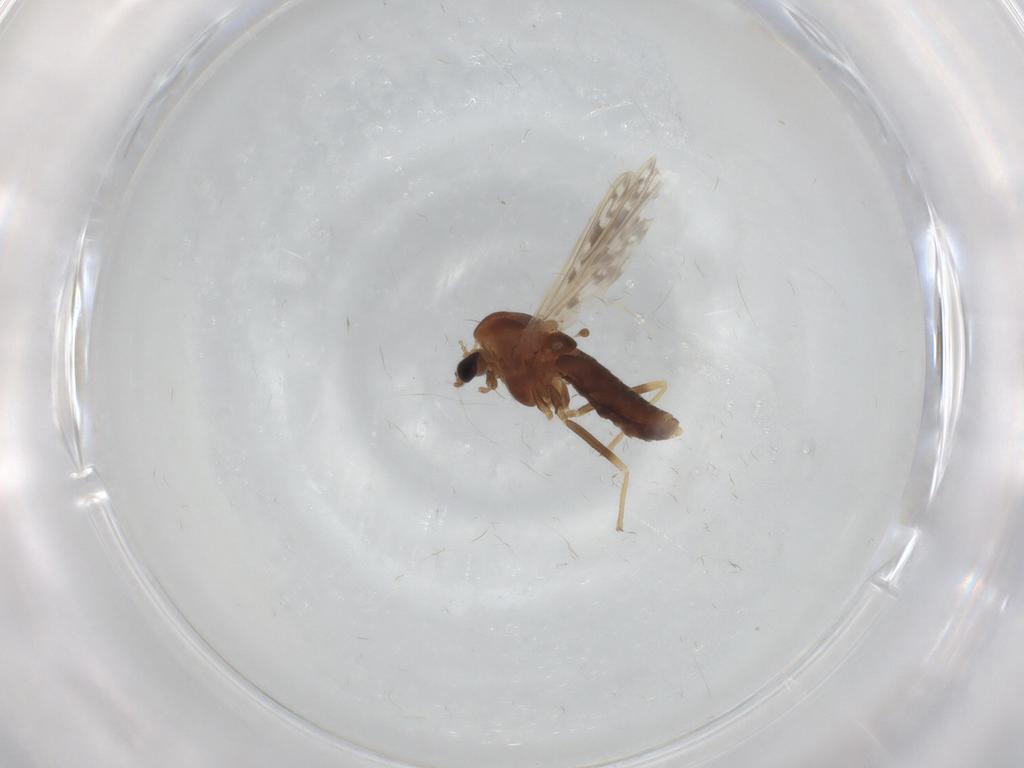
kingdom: Animalia
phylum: Arthropoda
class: Insecta
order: Diptera
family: Chironomidae
